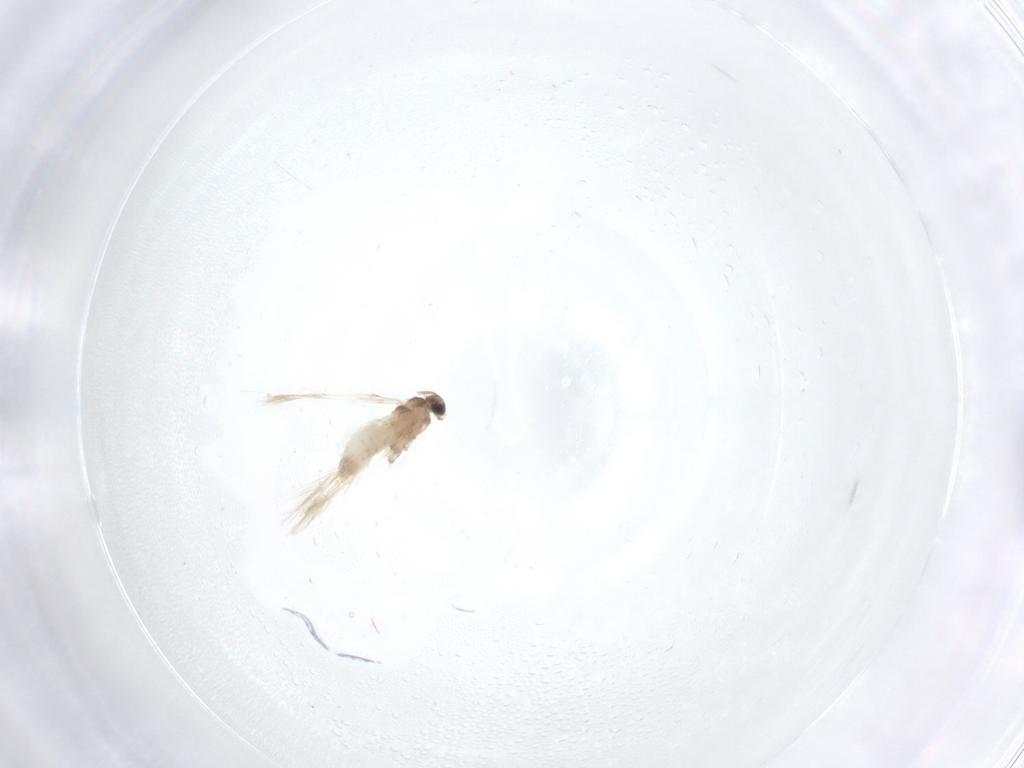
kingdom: Animalia
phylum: Arthropoda
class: Insecta
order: Lepidoptera
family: Nepticulidae
